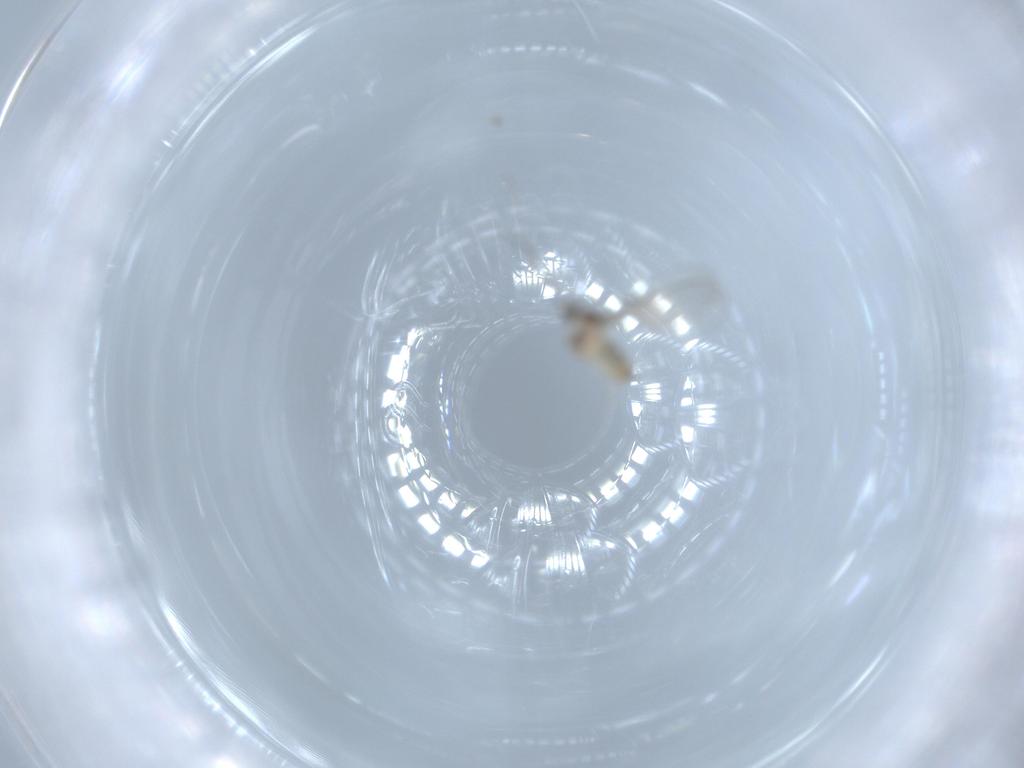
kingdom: Animalia
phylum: Arthropoda
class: Insecta
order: Diptera
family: Cecidomyiidae
